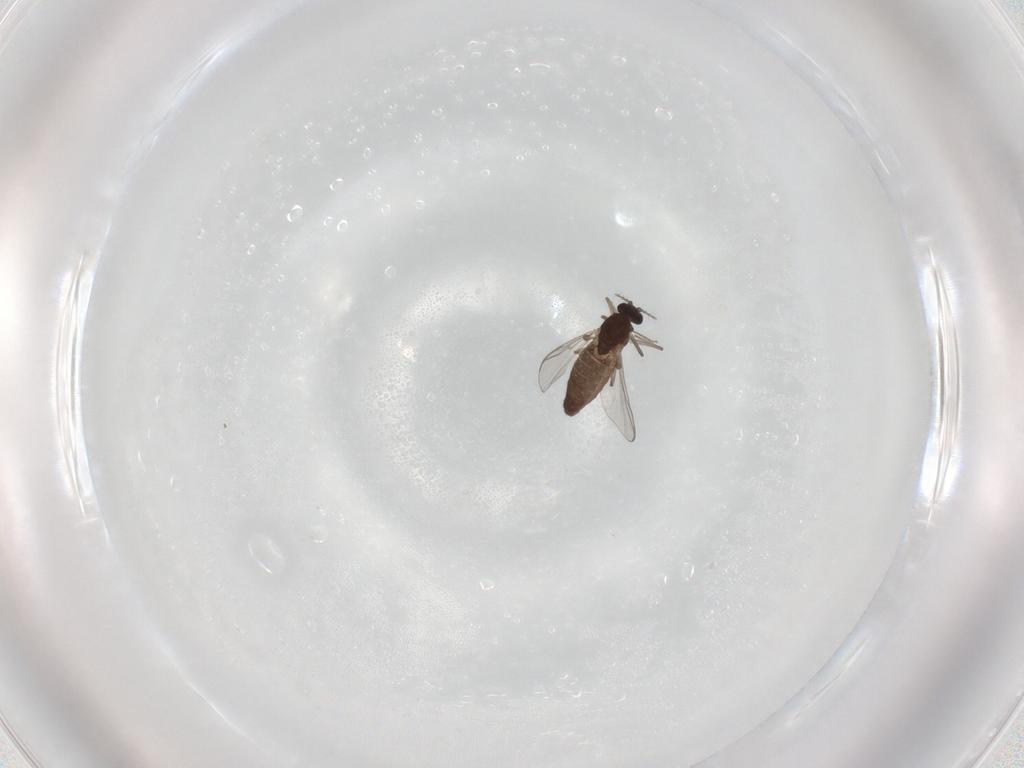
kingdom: Animalia
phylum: Arthropoda
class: Insecta
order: Diptera
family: Chironomidae
